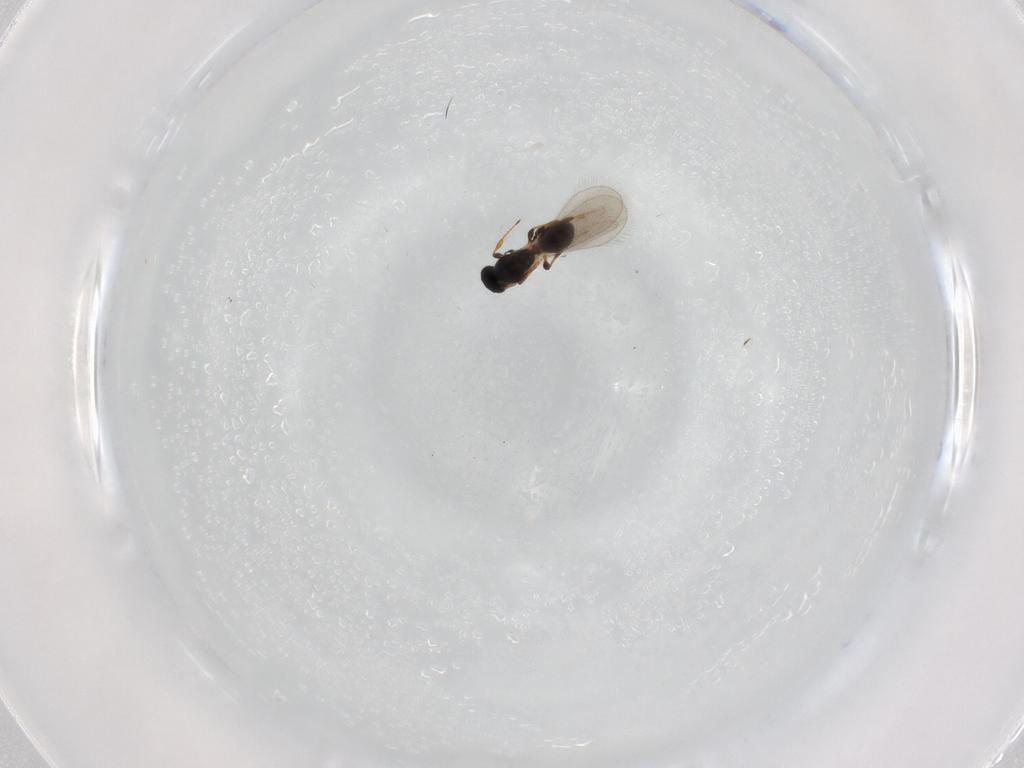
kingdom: Animalia
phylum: Arthropoda
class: Insecta
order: Hymenoptera
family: Platygastridae
